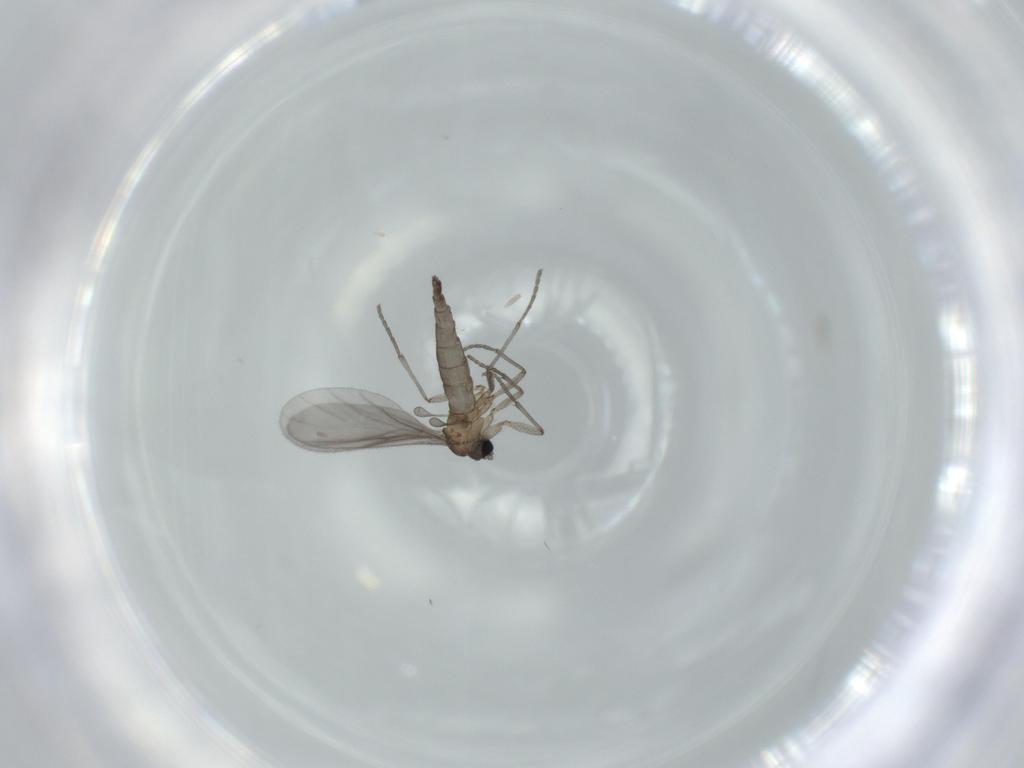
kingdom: Animalia
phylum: Arthropoda
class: Insecta
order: Diptera
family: Sciaridae
